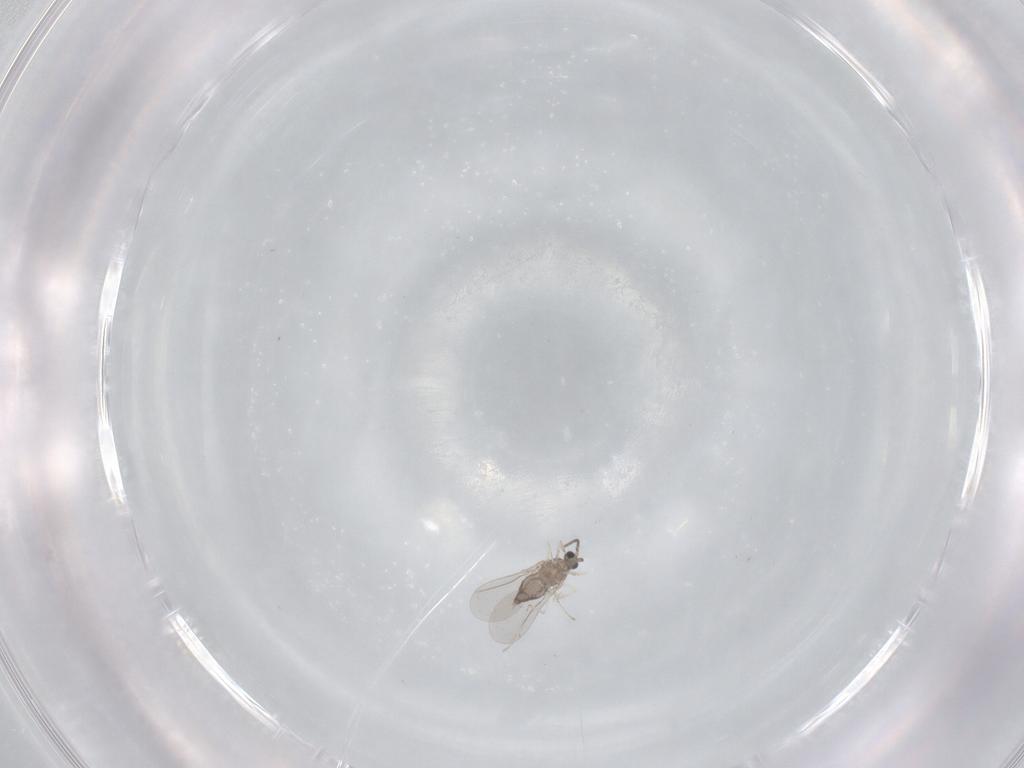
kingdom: Animalia
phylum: Arthropoda
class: Insecta
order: Diptera
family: Cecidomyiidae
